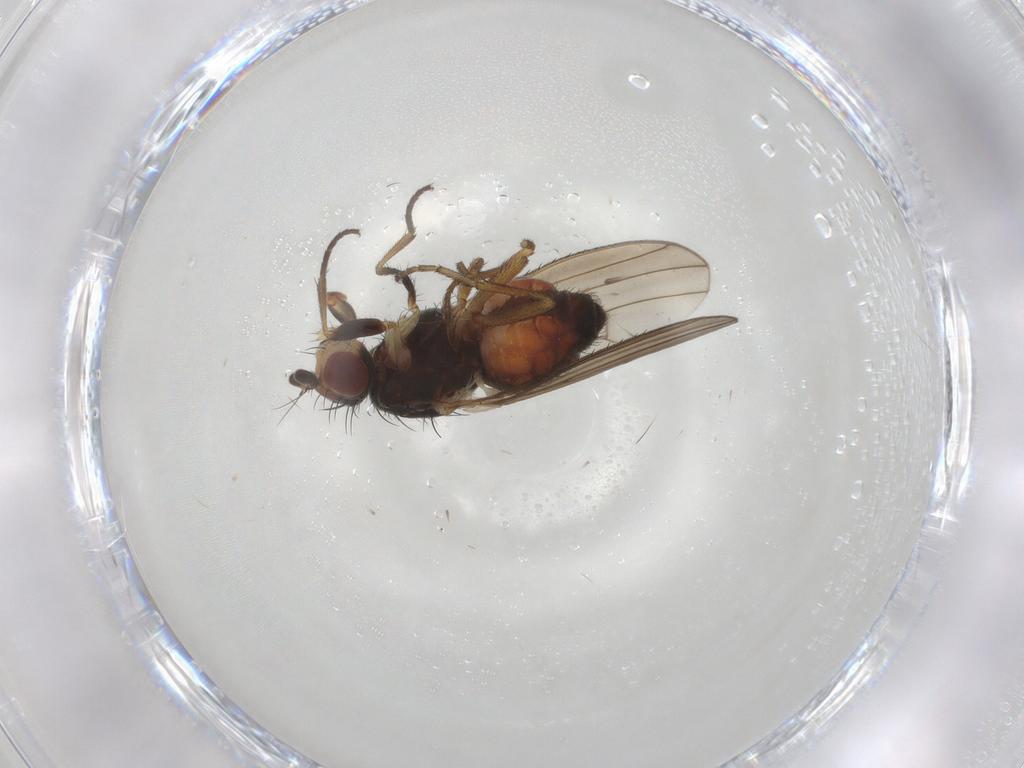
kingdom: Animalia
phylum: Arthropoda
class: Insecta
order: Diptera
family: Heleomyzidae
